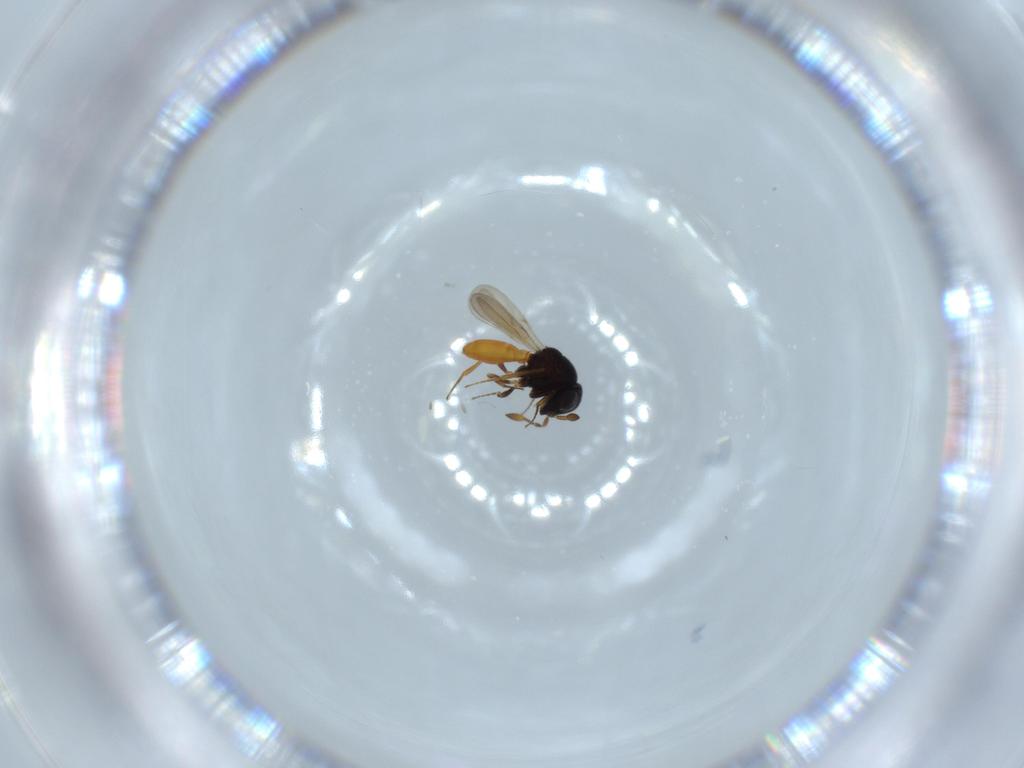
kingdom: Animalia
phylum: Arthropoda
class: Insecta
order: Hymenoptera
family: Scelionidae
